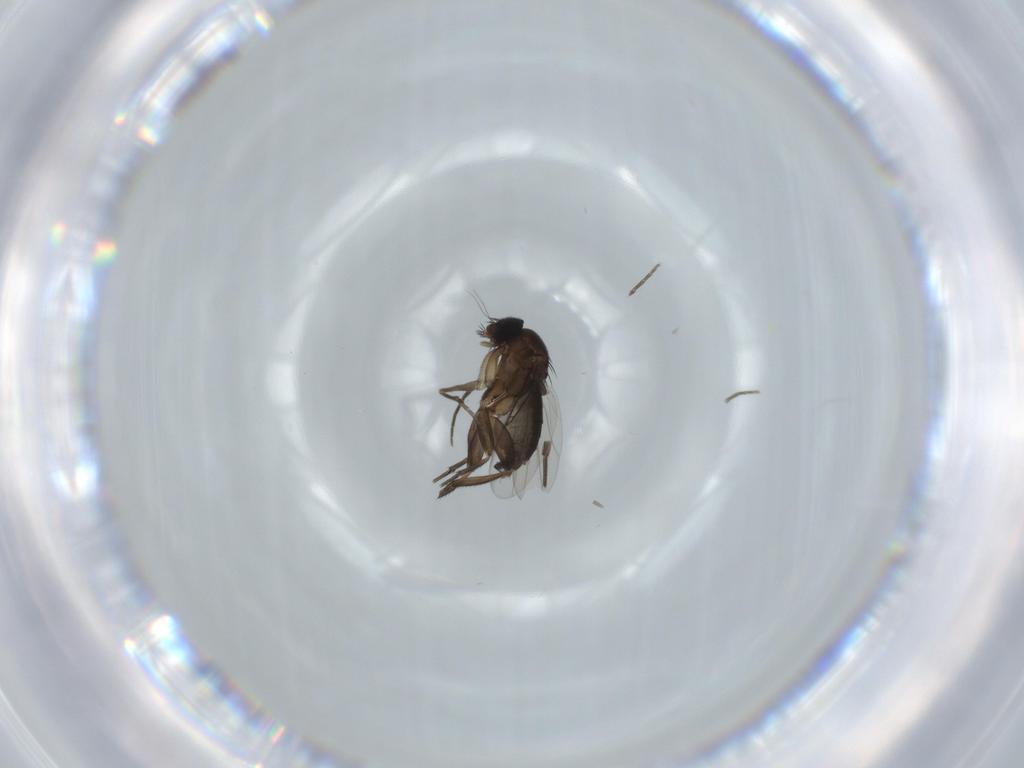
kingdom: Animalia
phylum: Arthropoda
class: Insecta
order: Diptera
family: Phoridae
